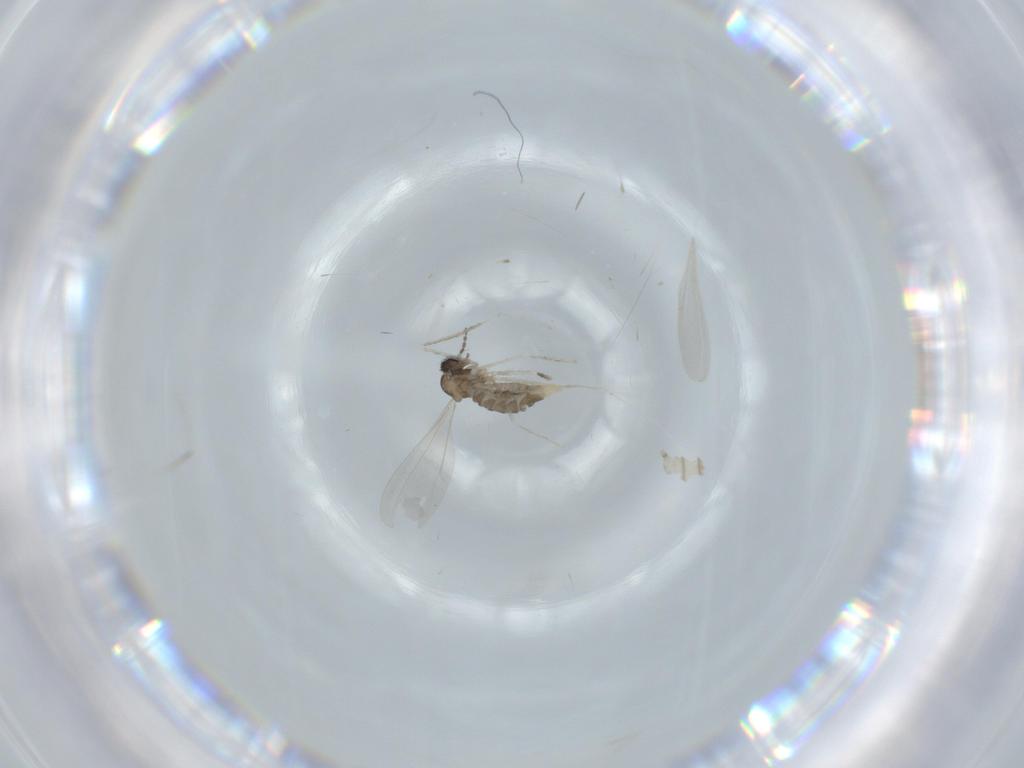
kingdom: Animalia
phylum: Arthropoda
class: Insecta
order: Diptera
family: Cecidomyiidae
